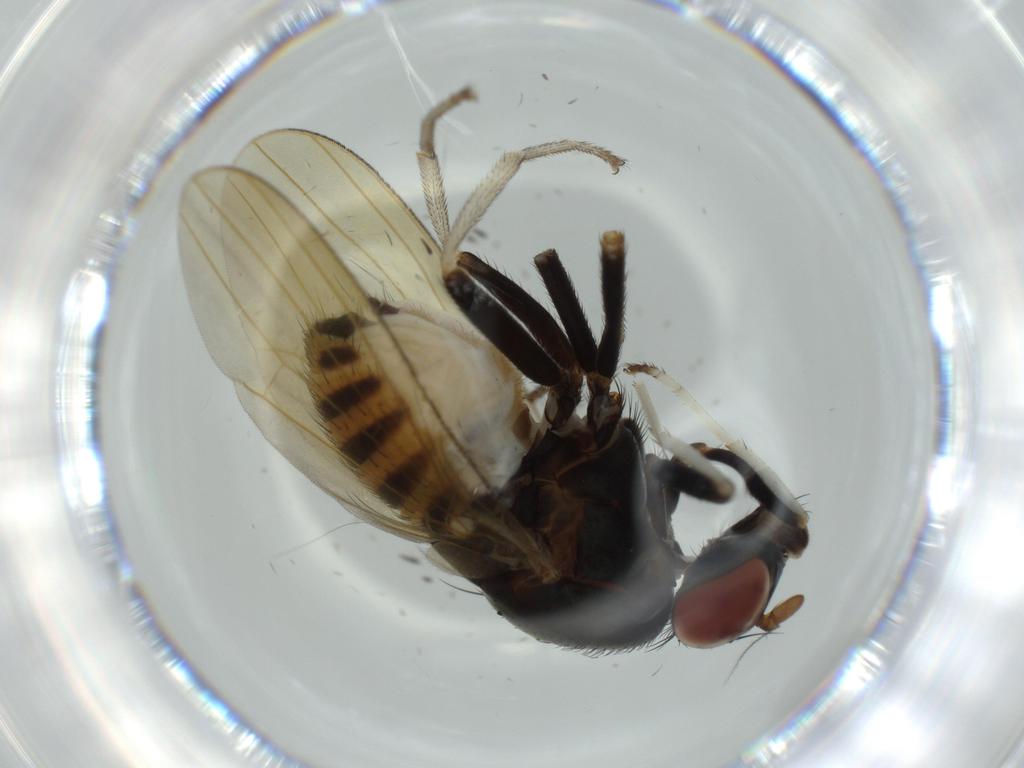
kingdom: Animalia
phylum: Arthropoda
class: Insecta
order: Diptera
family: Lauxaniidae
